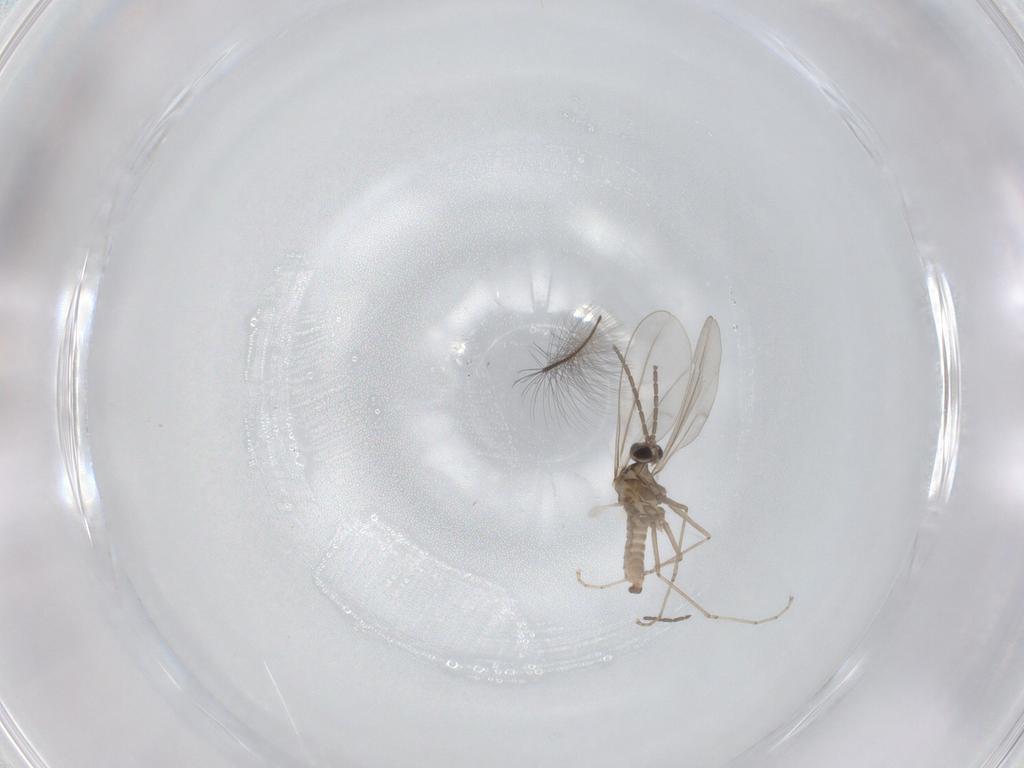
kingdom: Animalia
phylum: Arthropoda
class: Insecta
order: Diptera
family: Cecidomyiidae
